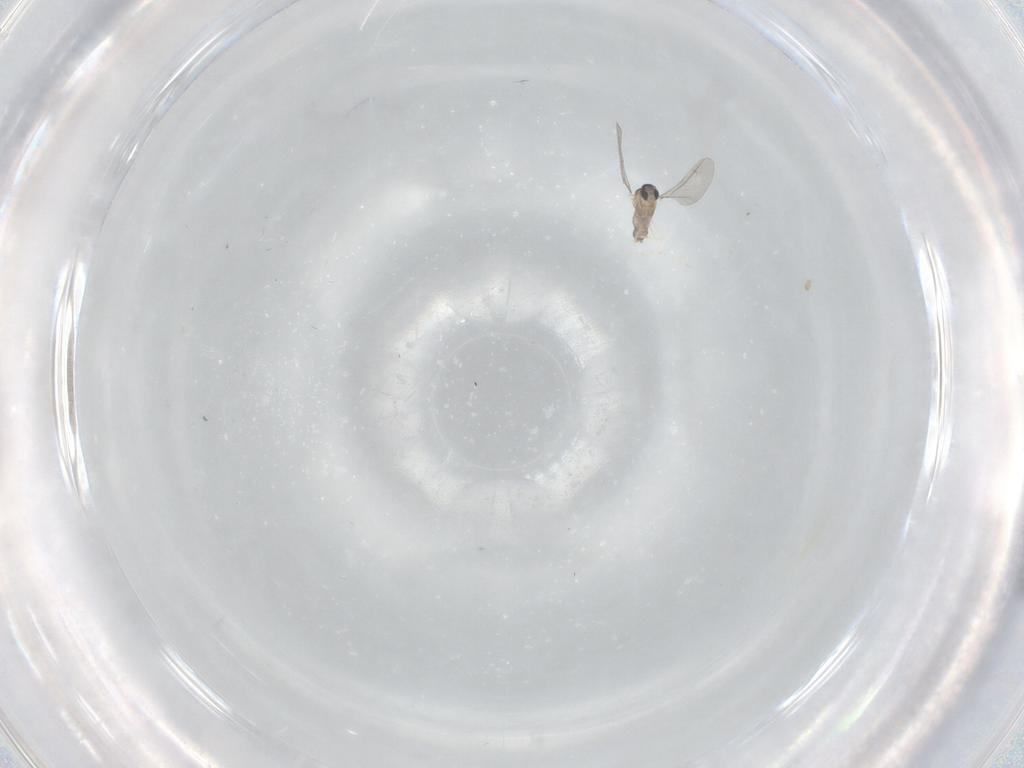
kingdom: Animalia
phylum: Arthropoda
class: Insecta
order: Diptera
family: Cecidomyiidae
